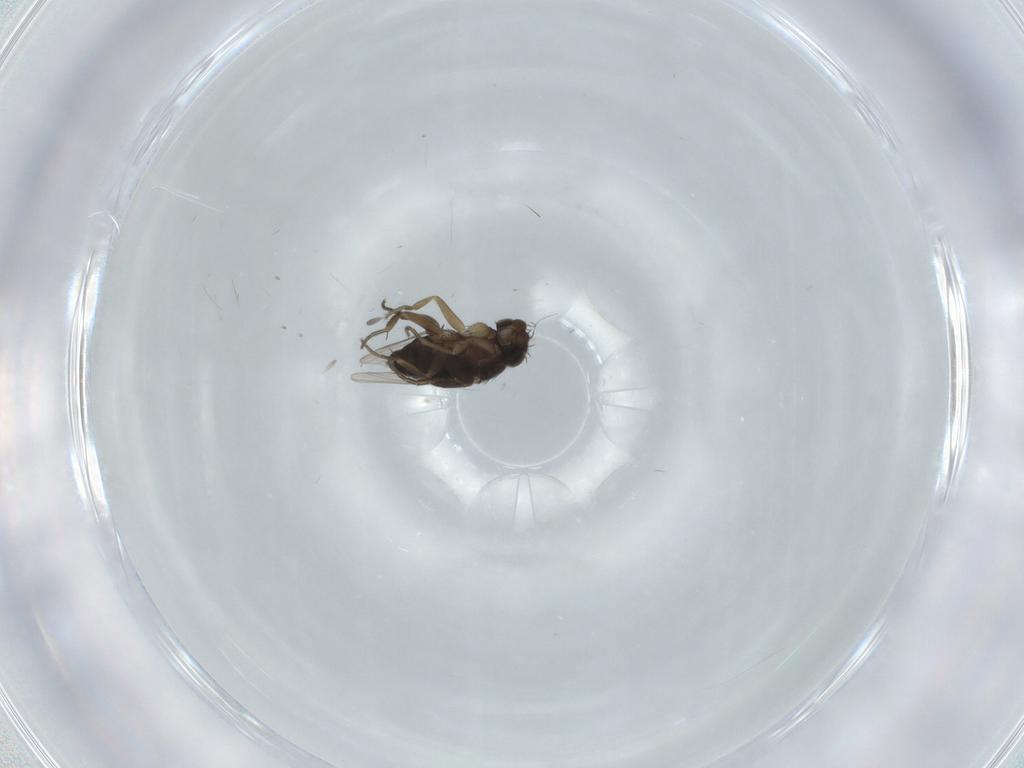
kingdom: Animalia
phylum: Arthropoda
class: Insecta
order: Diptera
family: Phoridae
